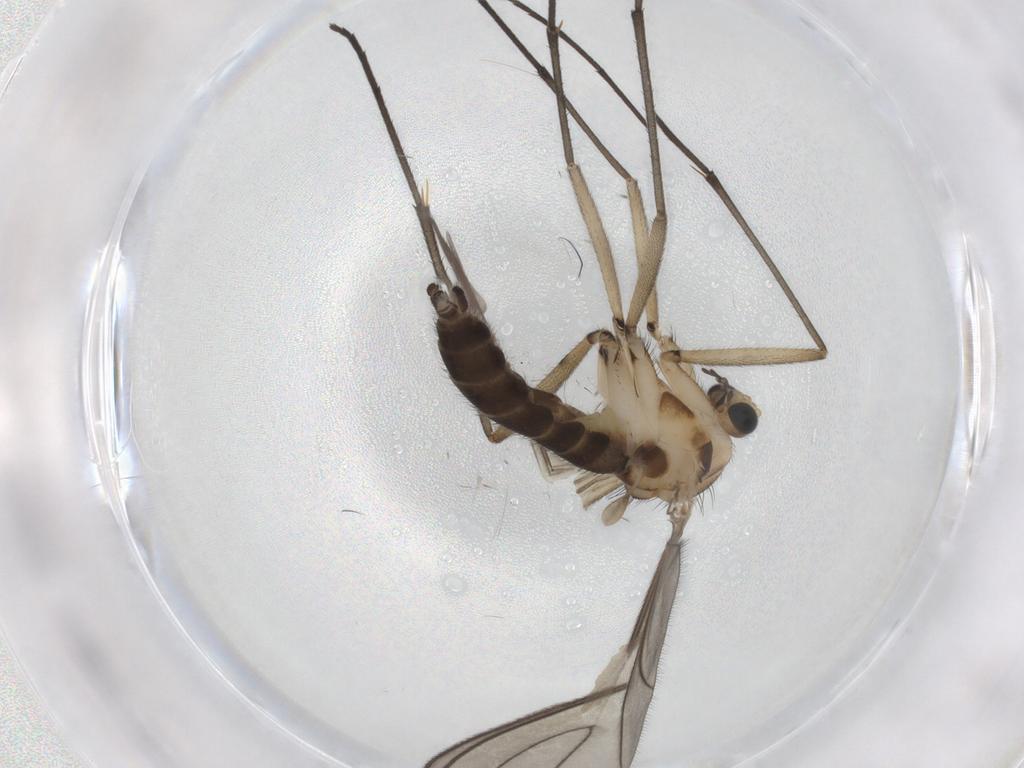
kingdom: Animalia
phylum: Arthropoda
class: Insecta
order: Diptera
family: Sciaridae
